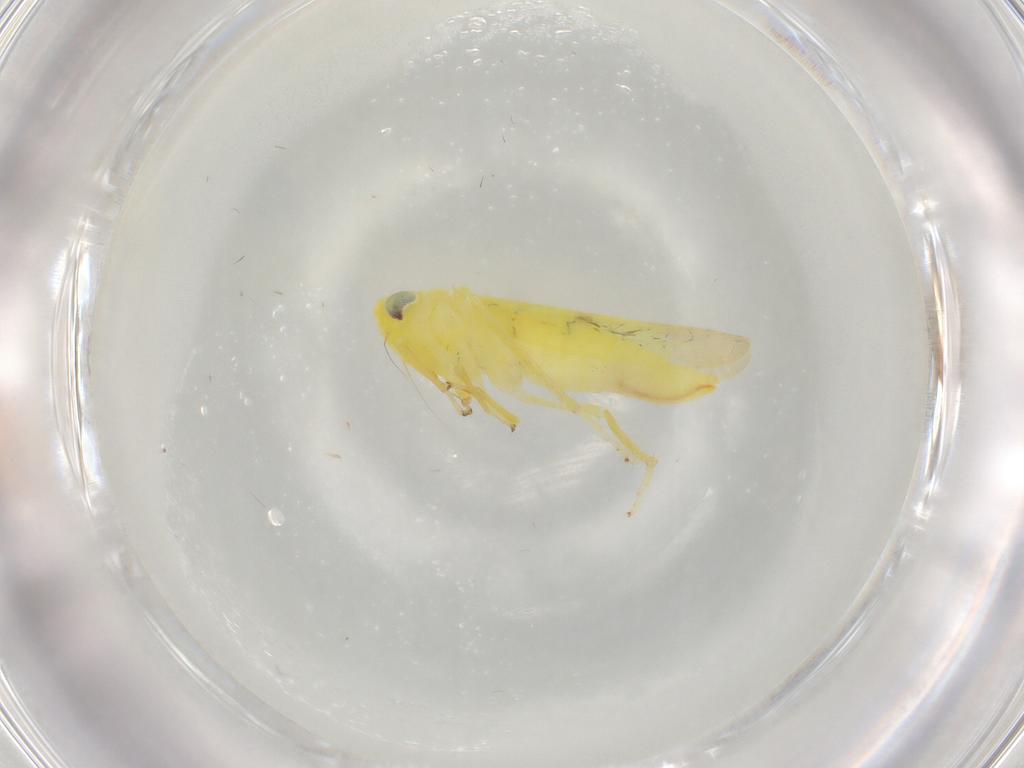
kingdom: Animalia
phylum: Arthropoda
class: Insecta
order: Hemiptera
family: Cicadellidae
